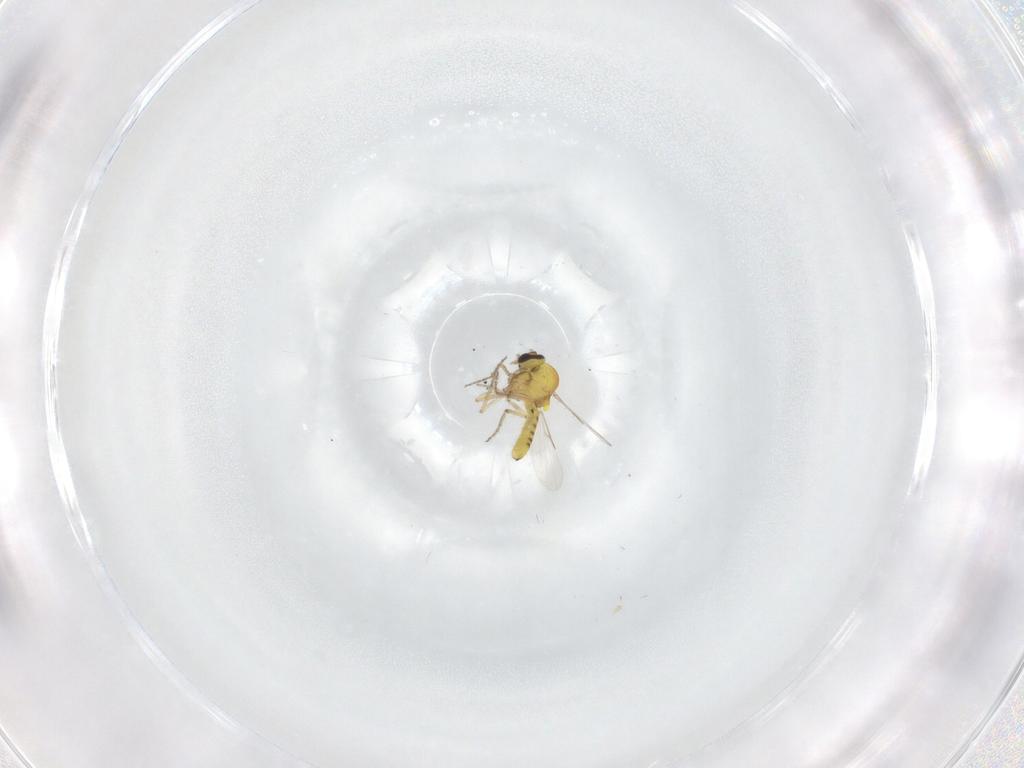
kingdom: Animalia
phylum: Arthropoda
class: Insecta
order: Diptera
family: Ceratopogonidae
